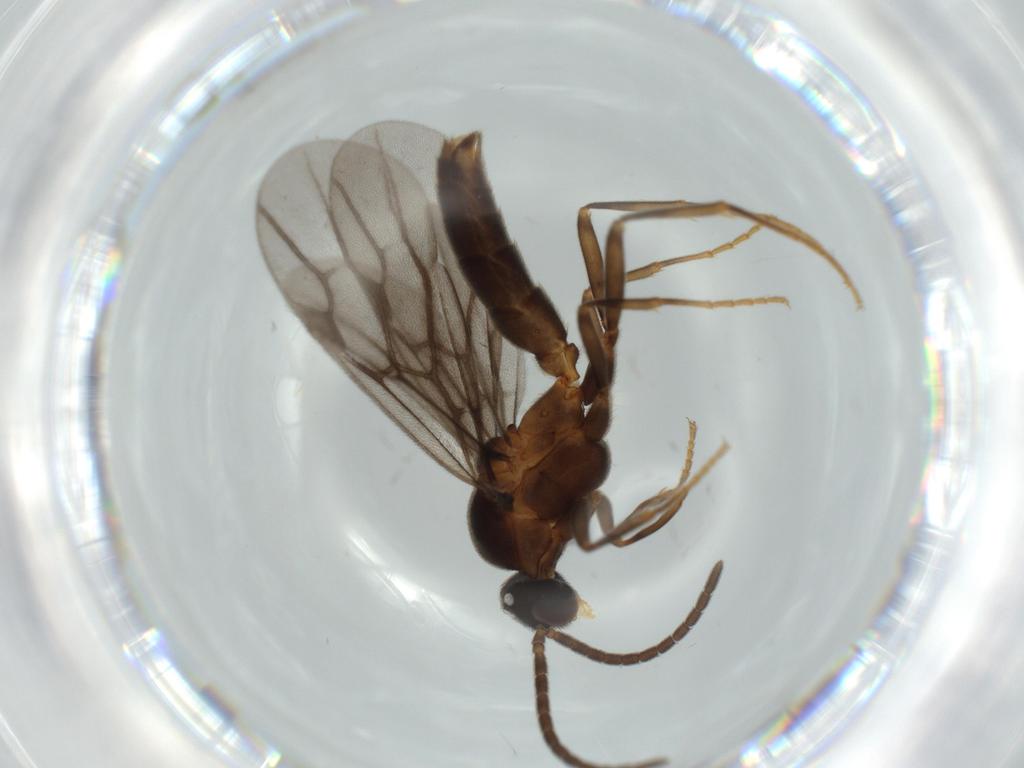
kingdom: Animalia
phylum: Arthropoda
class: Insecta
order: Hymenoptera
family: Formicidae
